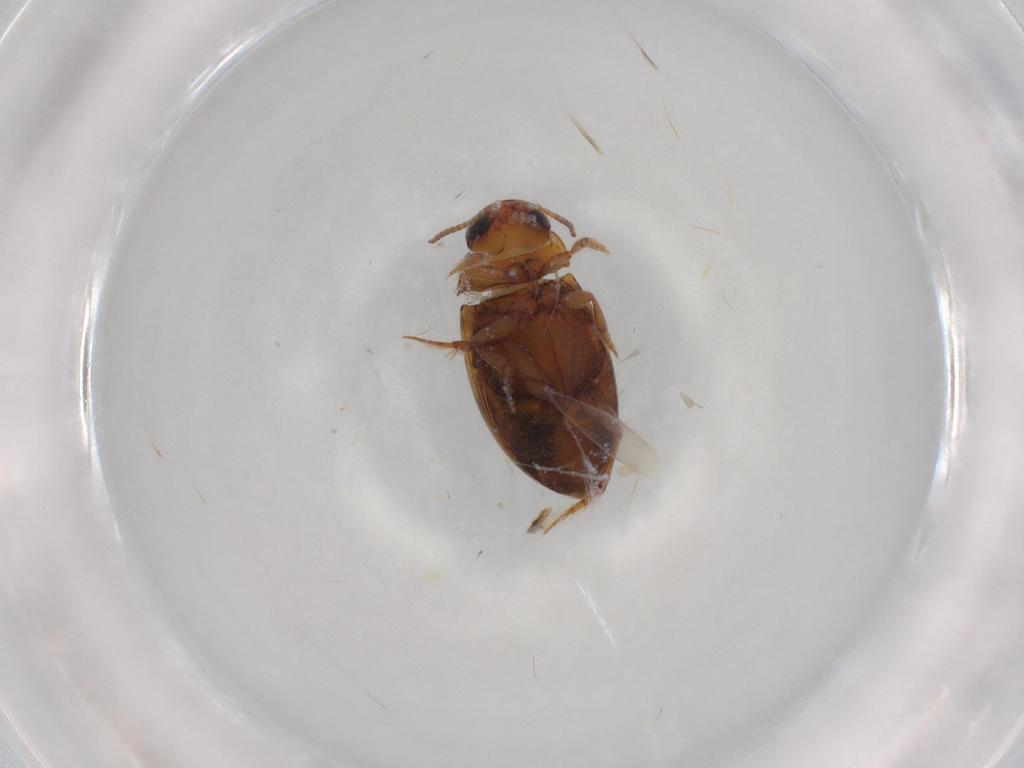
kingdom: Animalia
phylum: Arthropoda
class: Insecta
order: Coleoptera
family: Dytiscidae
